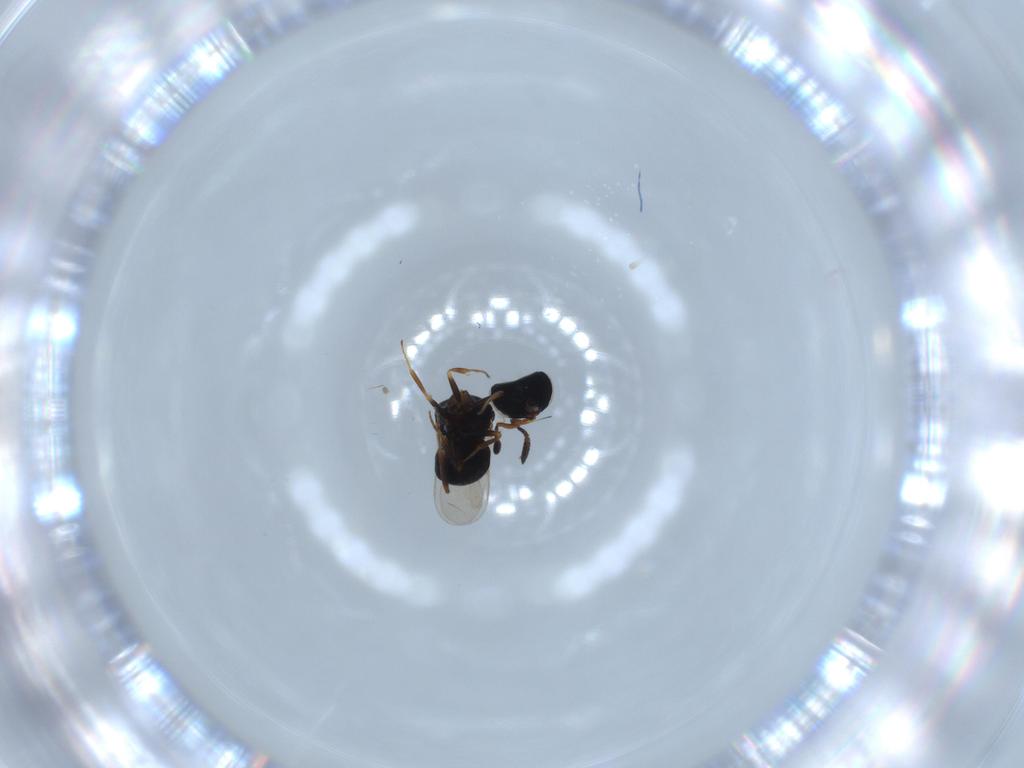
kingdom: Animalia
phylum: Arthropoda
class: Insecta
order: Hymenoptera
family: Scelionidae
